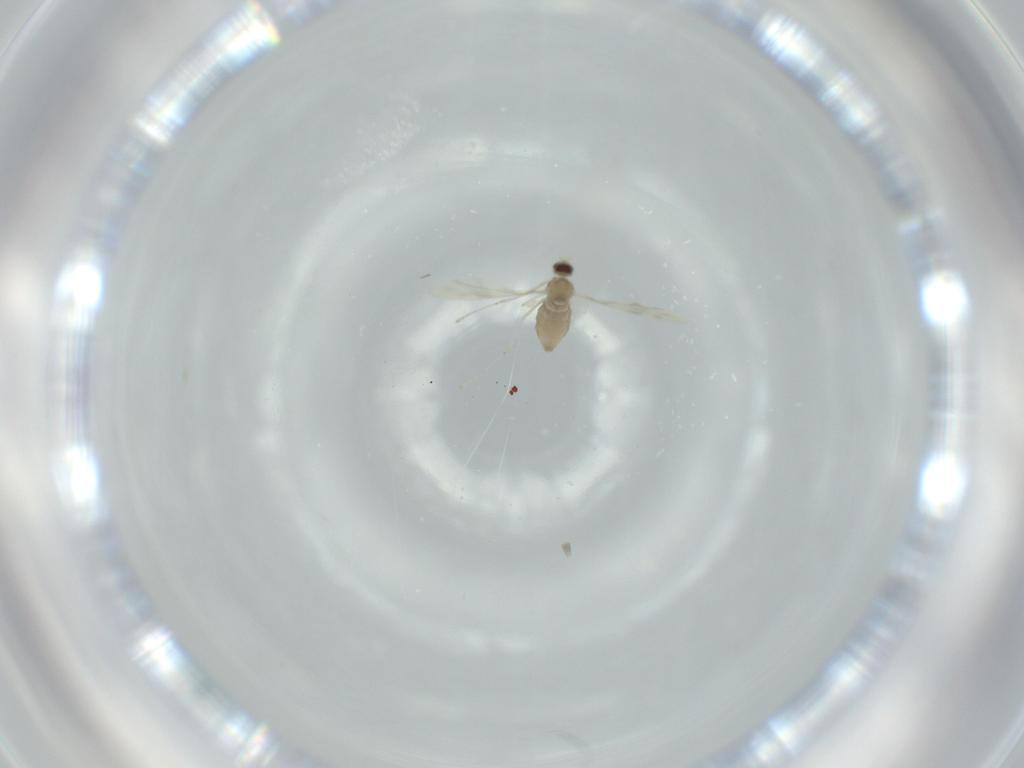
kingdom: Animalia
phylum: Arthropoda
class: Insecta
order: Diptera
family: Cecidomyiidae
